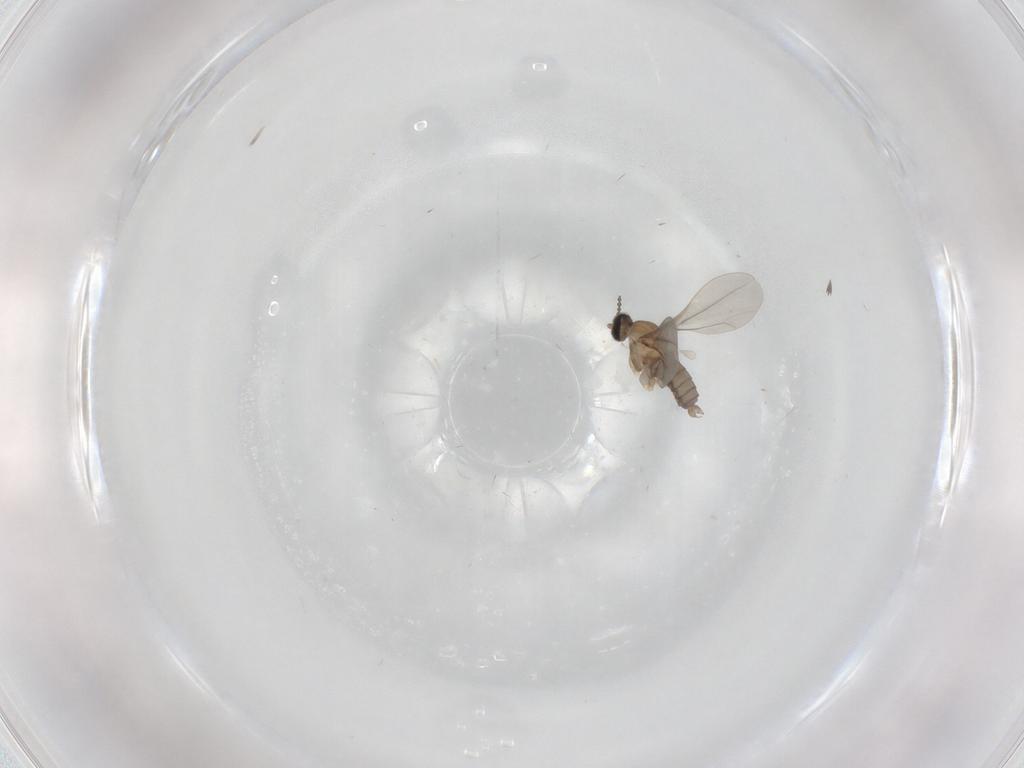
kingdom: Animalia
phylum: Arthropoda
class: Insecta
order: Diptera
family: Cecidomyiidae
